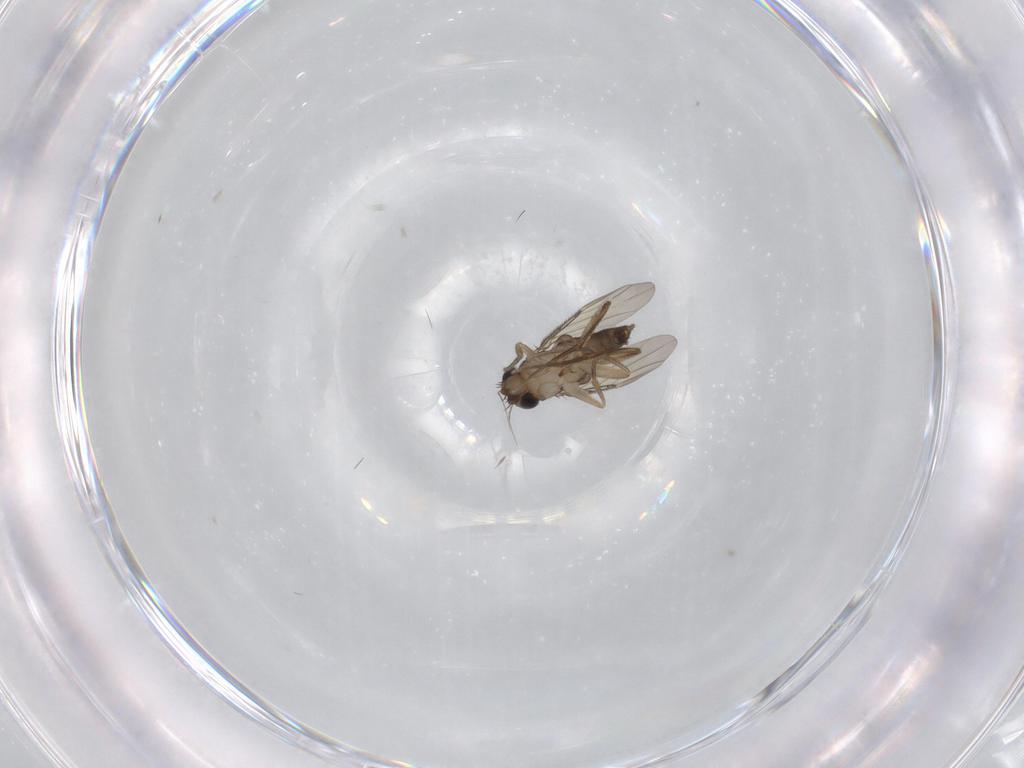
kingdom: Animalia
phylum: Arthropoda
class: Insecta
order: Diptera
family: Phoridae
